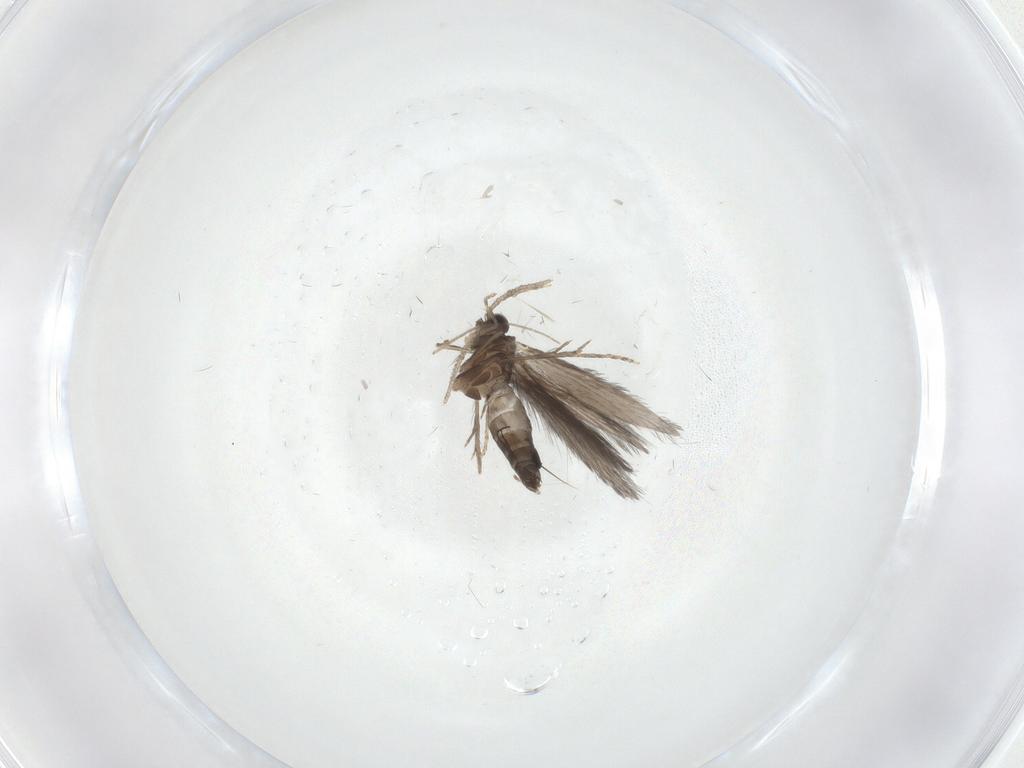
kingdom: Animalia
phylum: Arthropoda
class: Insecta
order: Trichoptera
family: Hydroptilidae
